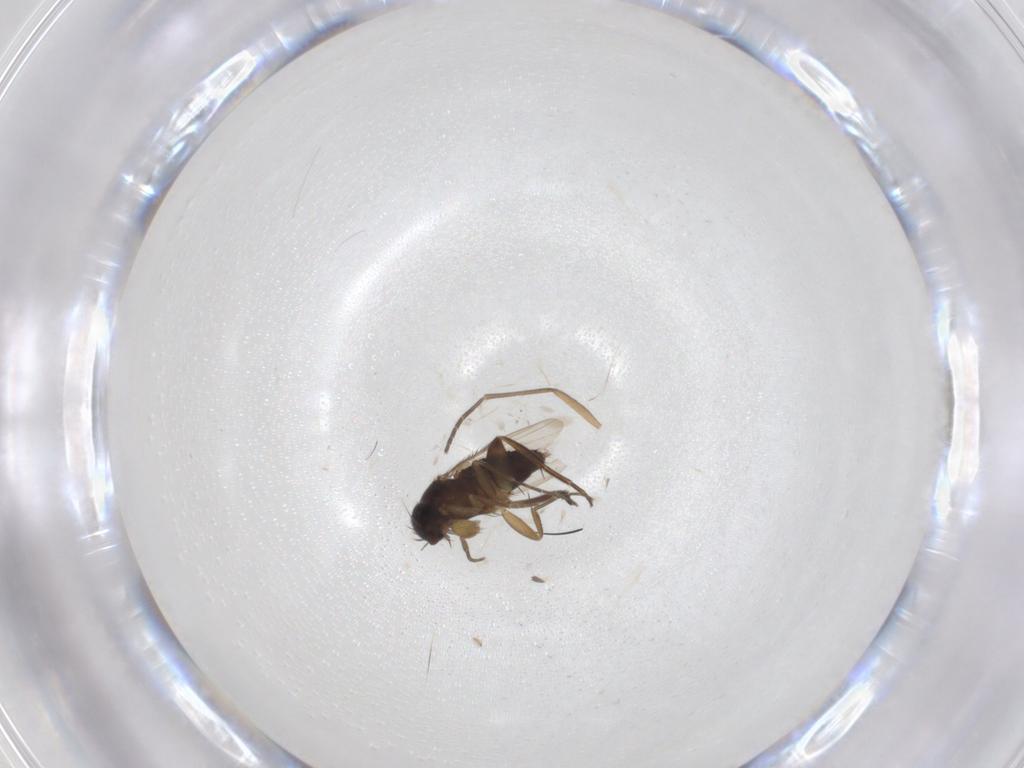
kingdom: Animalia
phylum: Arthropoda
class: Insecta
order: Diptera
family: Phoridae
